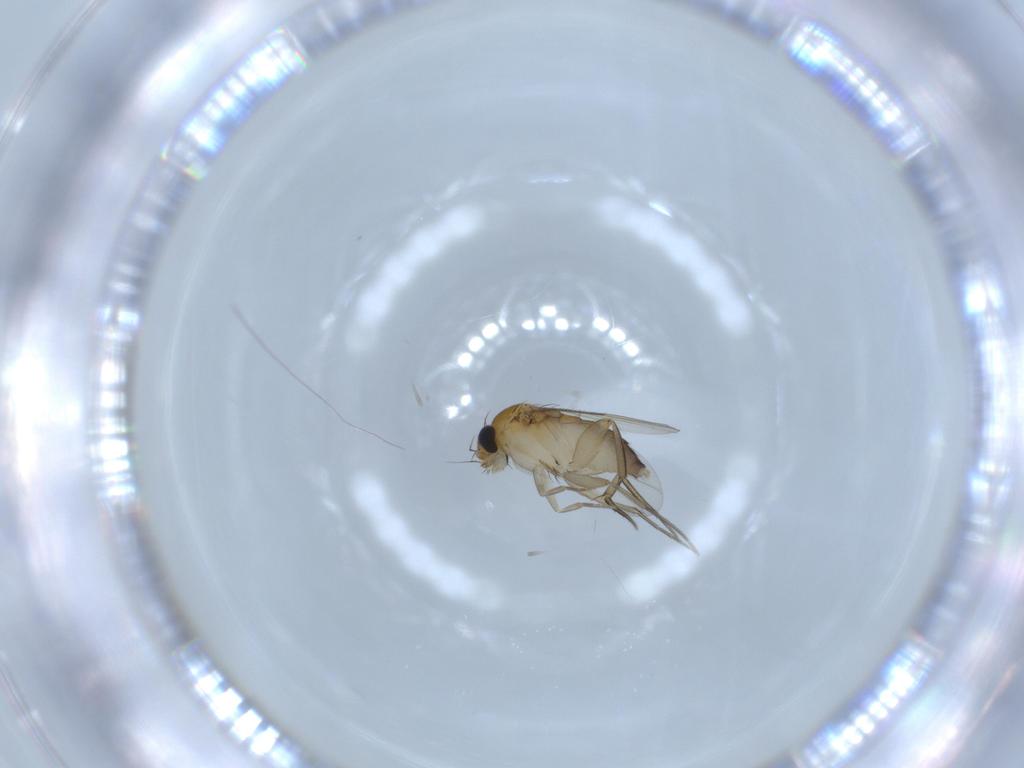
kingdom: Animalia
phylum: Arthropoda
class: Insecta
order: Diptera
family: Phoridae
